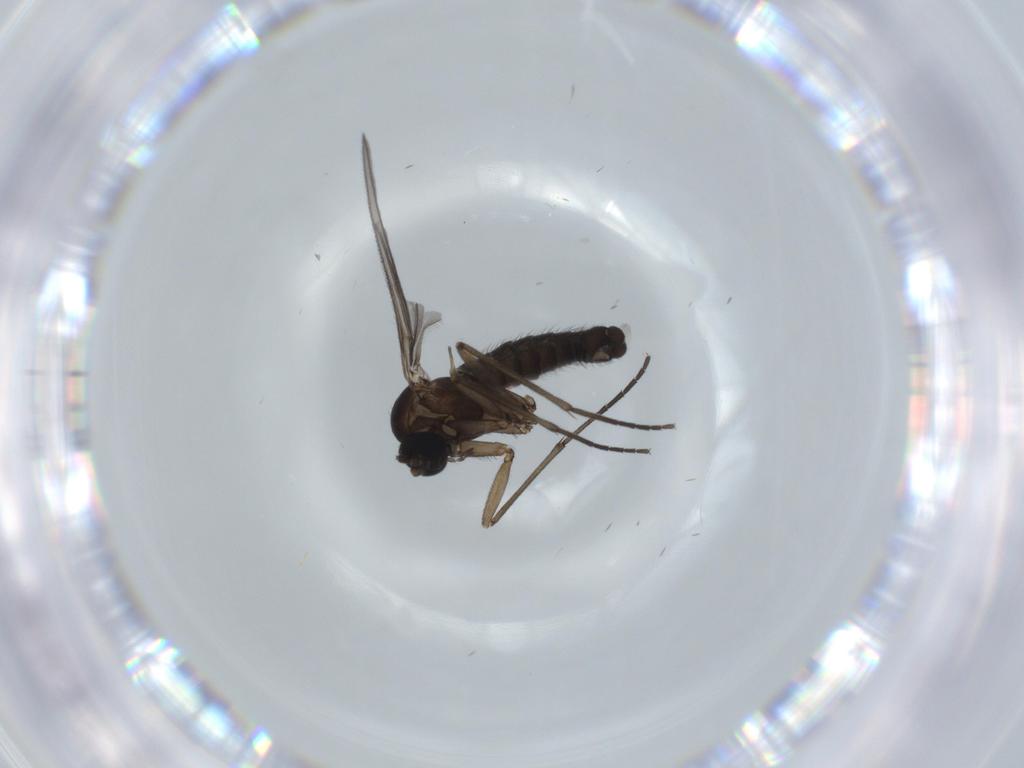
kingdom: Animalia
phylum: Arthropoda
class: Insecta
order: Diptera
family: Sciaridae
